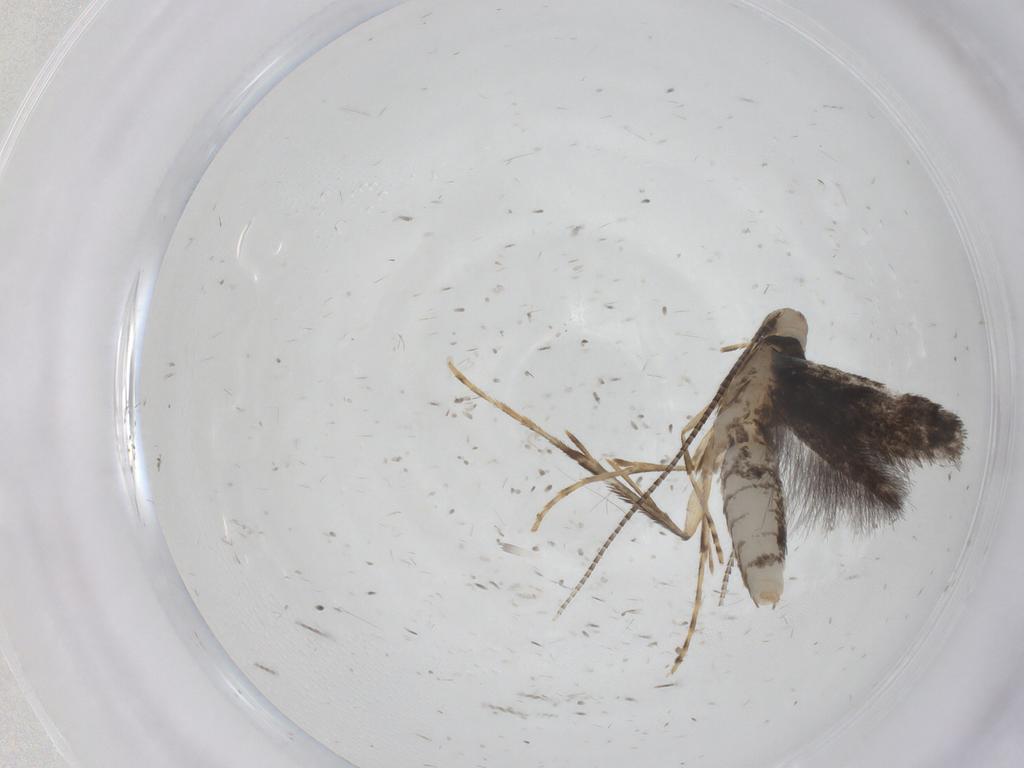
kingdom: Animalia
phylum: Arthropoda
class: Insecta
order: Lepidoptera
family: Geometridae
